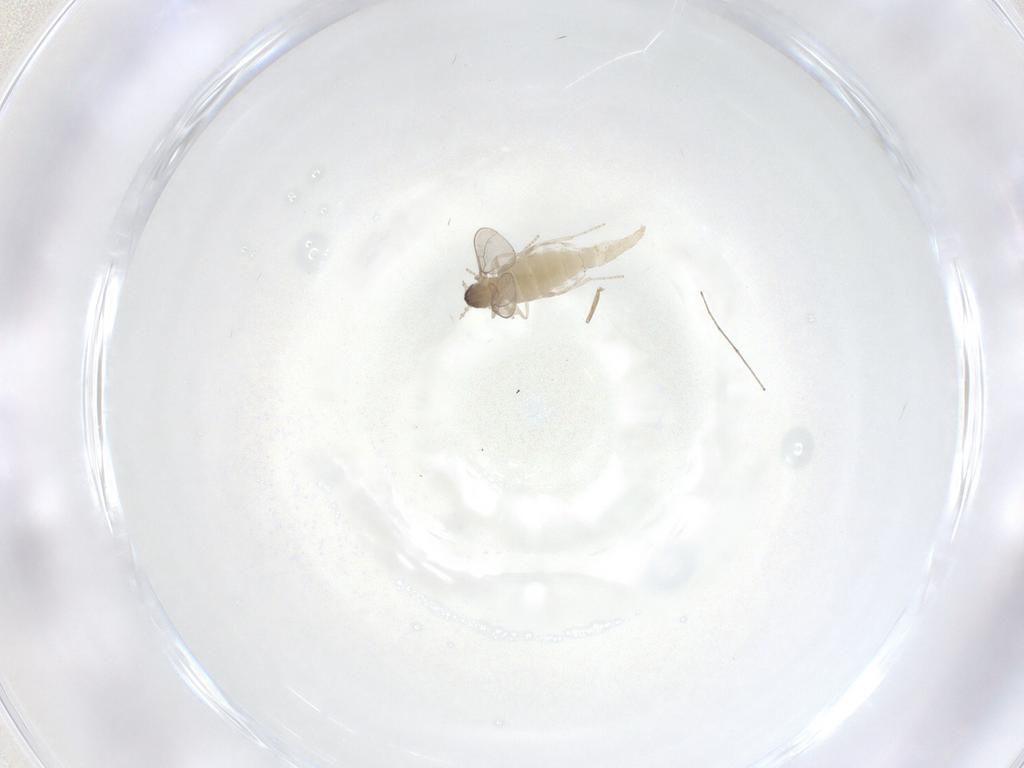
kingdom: Animalia
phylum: Arthropoda
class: Insecta
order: Diptera
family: Cecidomyiidae
